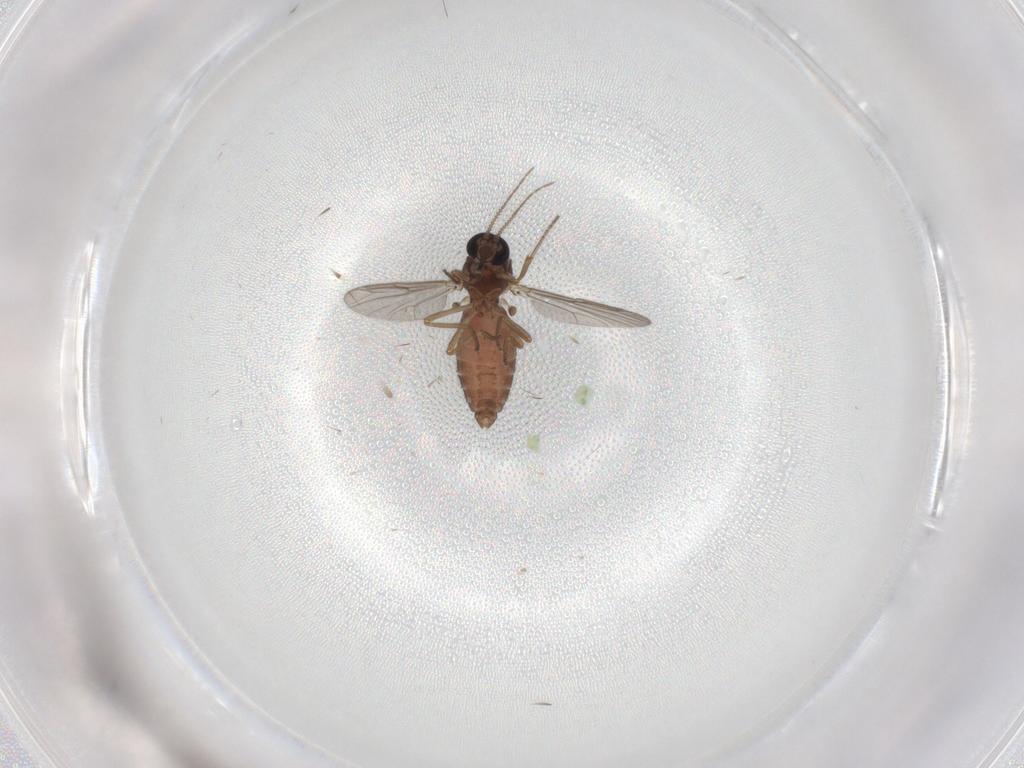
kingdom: Animalia
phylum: Arthropoda
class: Insecta
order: Diptera
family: Ceratopogonidae
